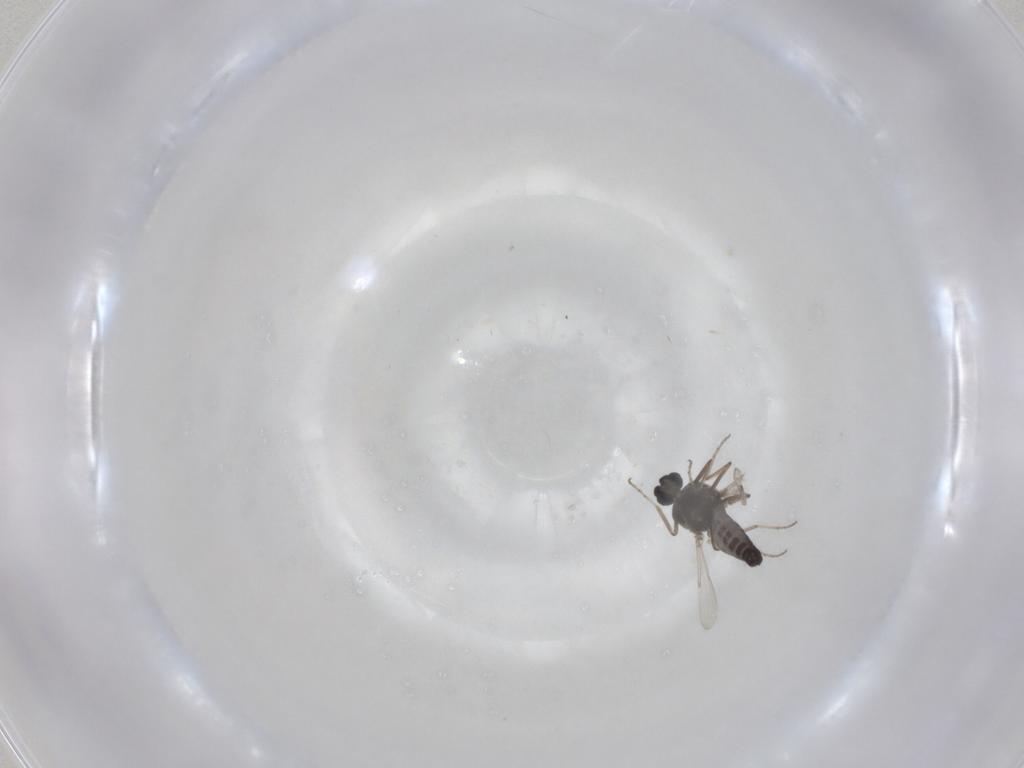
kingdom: Animalia
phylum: Arthropoda
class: Insecta
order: Diptera
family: Ceratopogonidae
